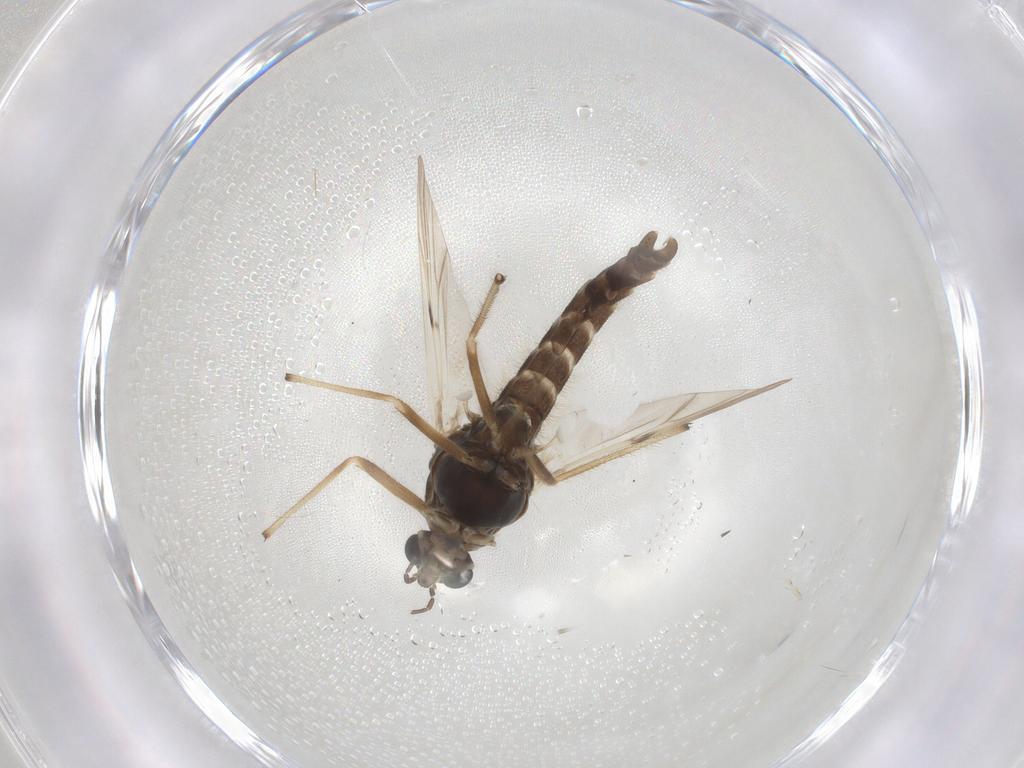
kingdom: Animalia
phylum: Arthropoda
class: Insecta
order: Diptera
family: Chironomidae
